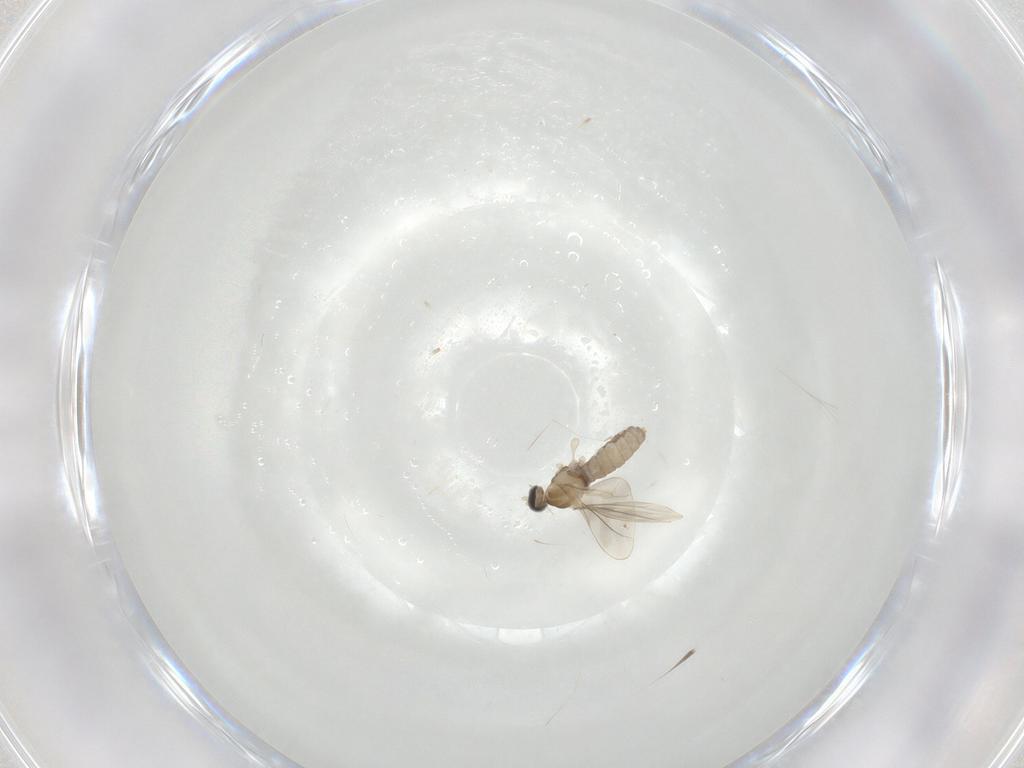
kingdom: Animalia
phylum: Arthropoda
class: Insecta
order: Diptera
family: Cecidomyiidae
